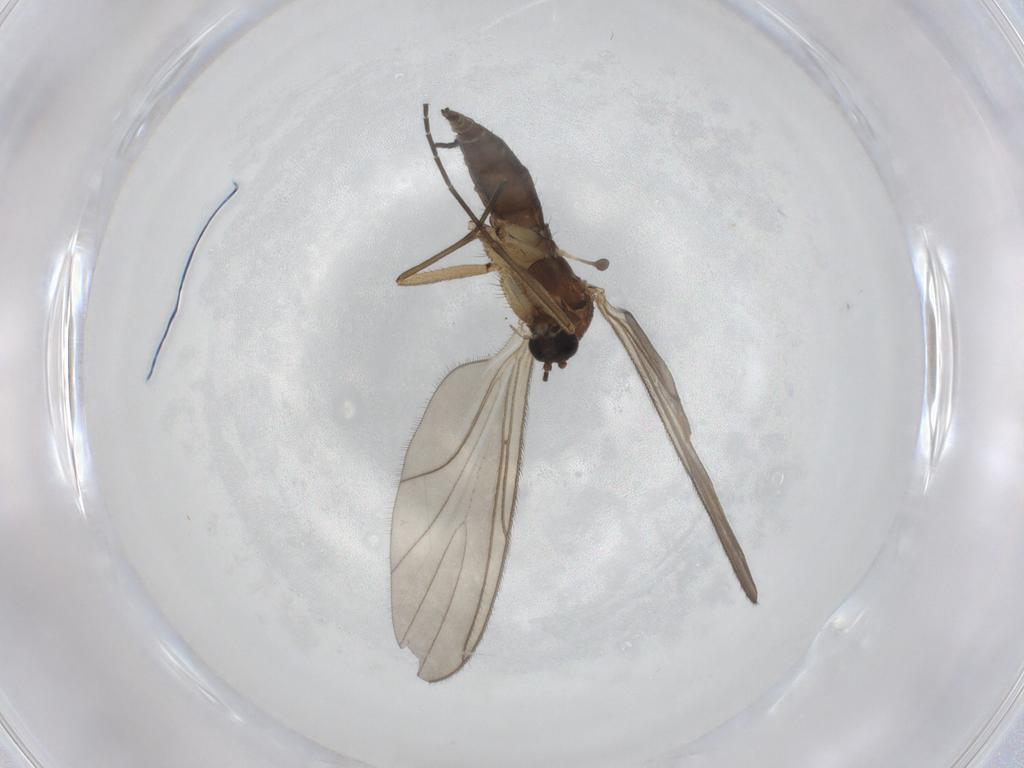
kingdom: Animalia
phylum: Arthropoda
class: Insecta
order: Diptera
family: Sciaridae
